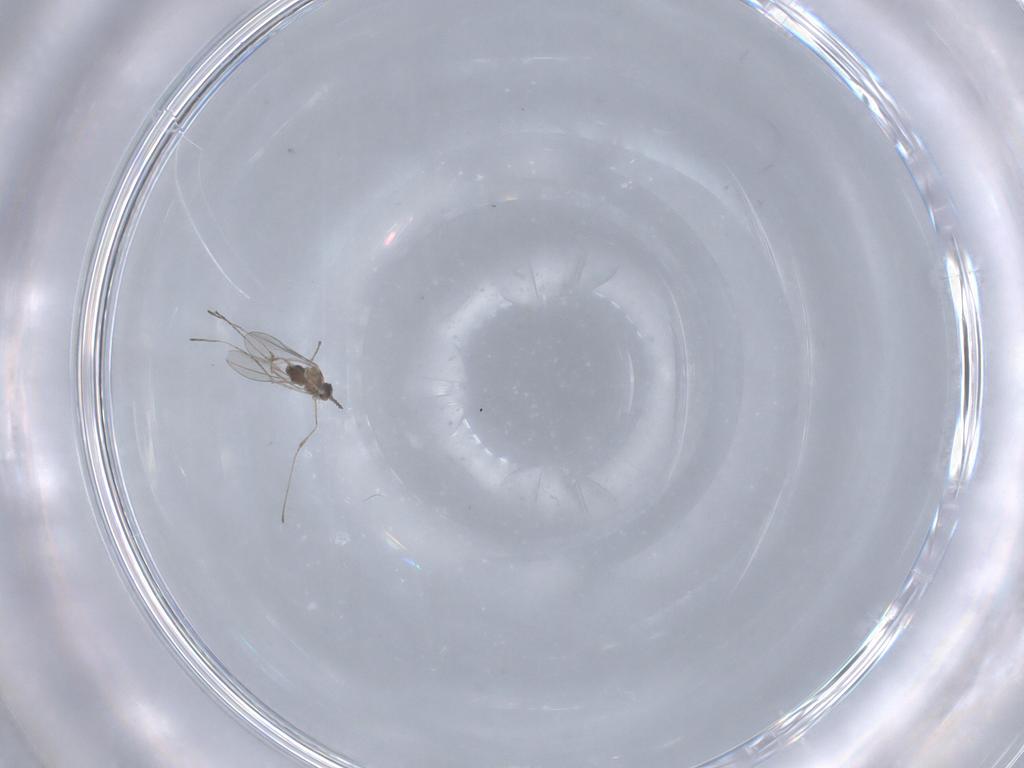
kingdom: Animalia
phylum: Arthropoda
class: Insecta
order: Diptera
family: Cecidomyiidae
